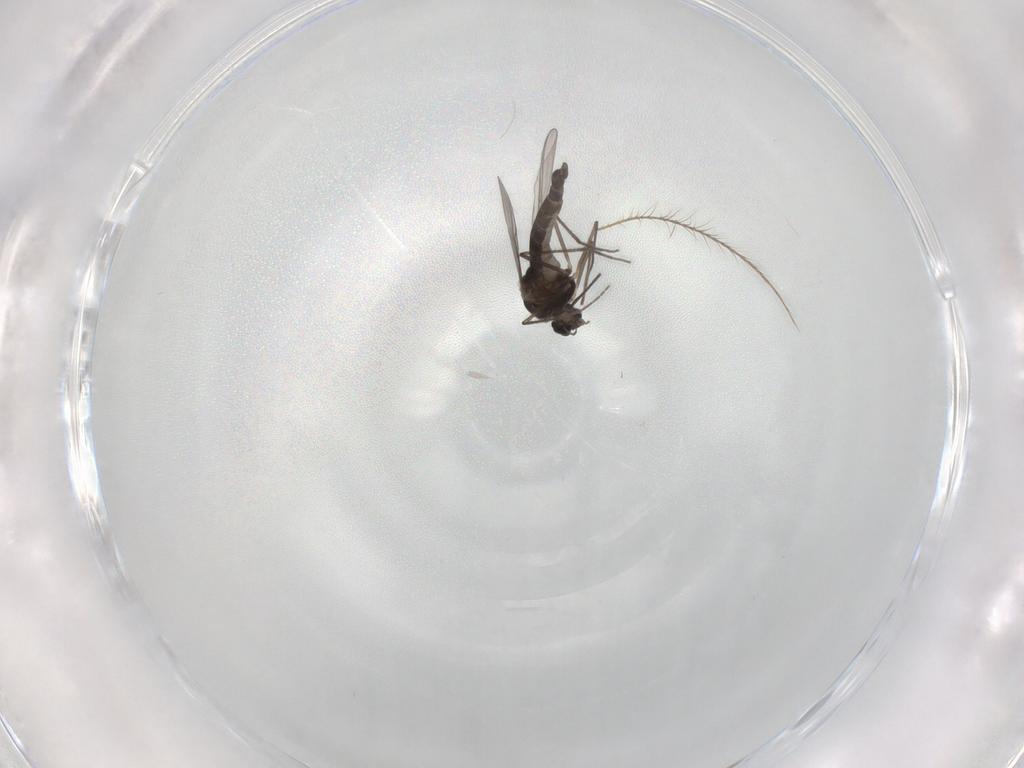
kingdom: Animalia
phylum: Arthropoda
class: Insecta
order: Diptera
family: Chironomidae
